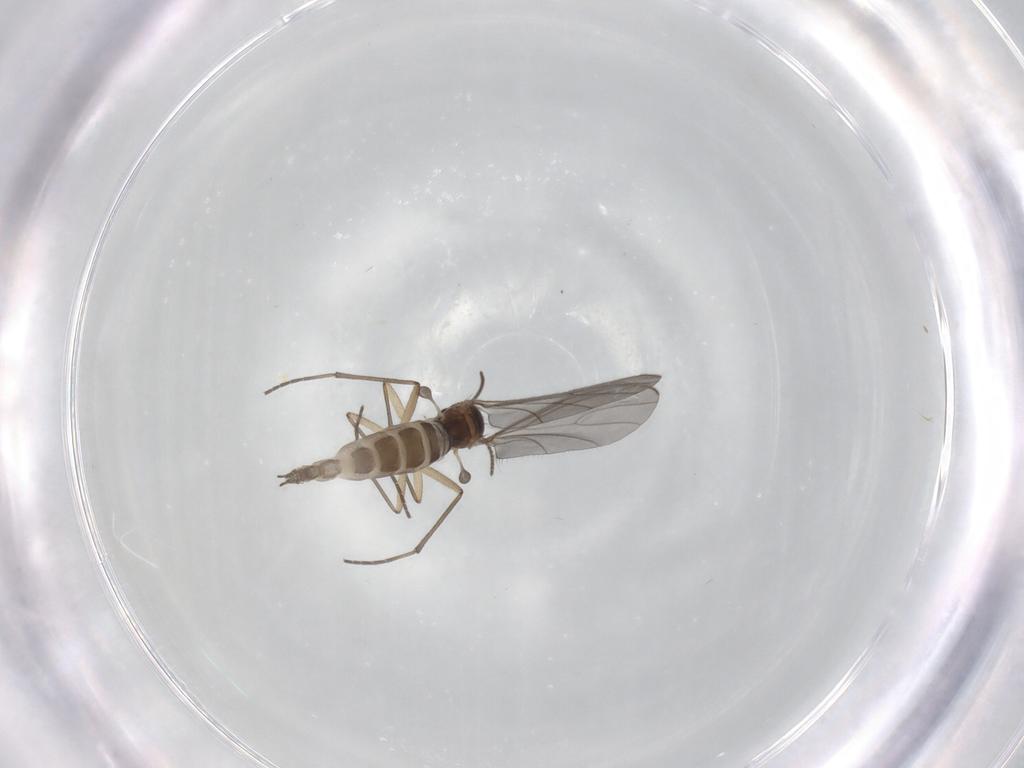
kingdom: Animalia
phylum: Arthropoda
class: Insecta
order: Diptera
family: Sciaridae
